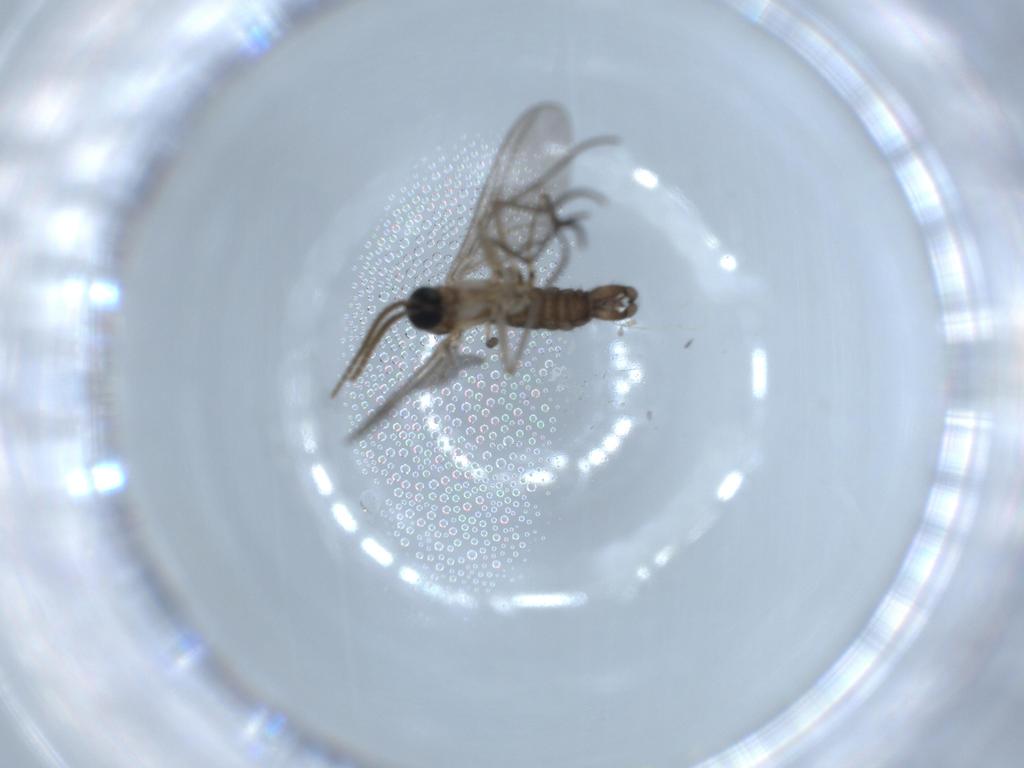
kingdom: Animalia
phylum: Arthropoda
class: Insecta
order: Diptera
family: Sciaridae
